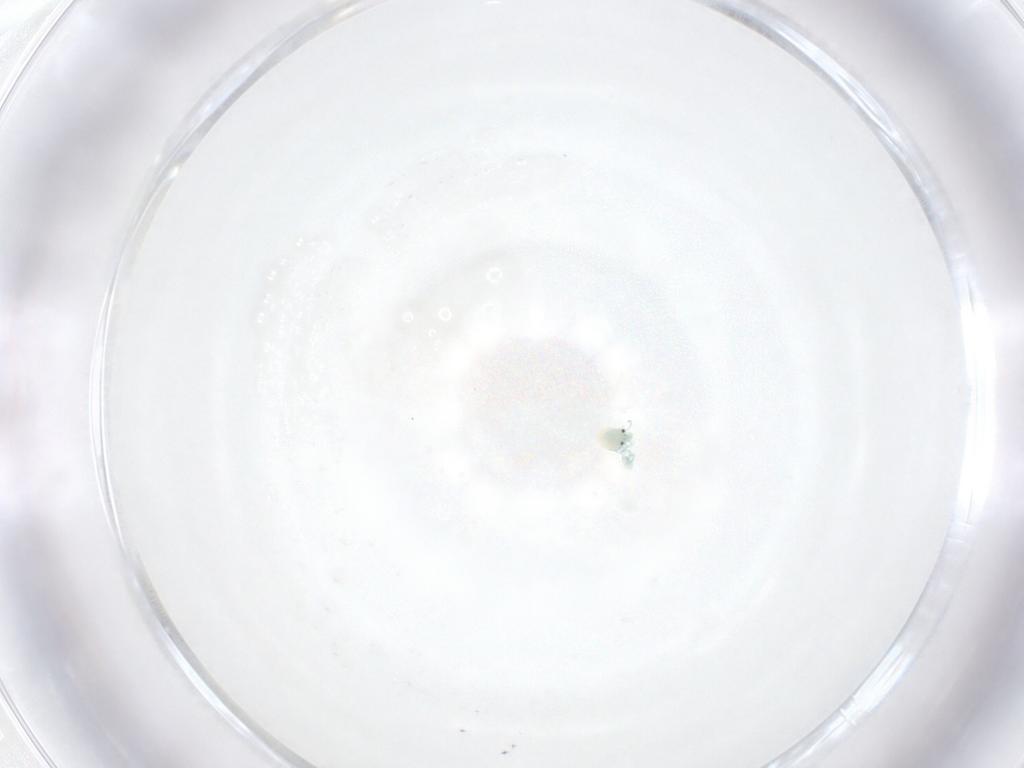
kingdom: Animalia
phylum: Arthropoda
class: Arachnida
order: Trombidiformes
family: Arrenuridae
